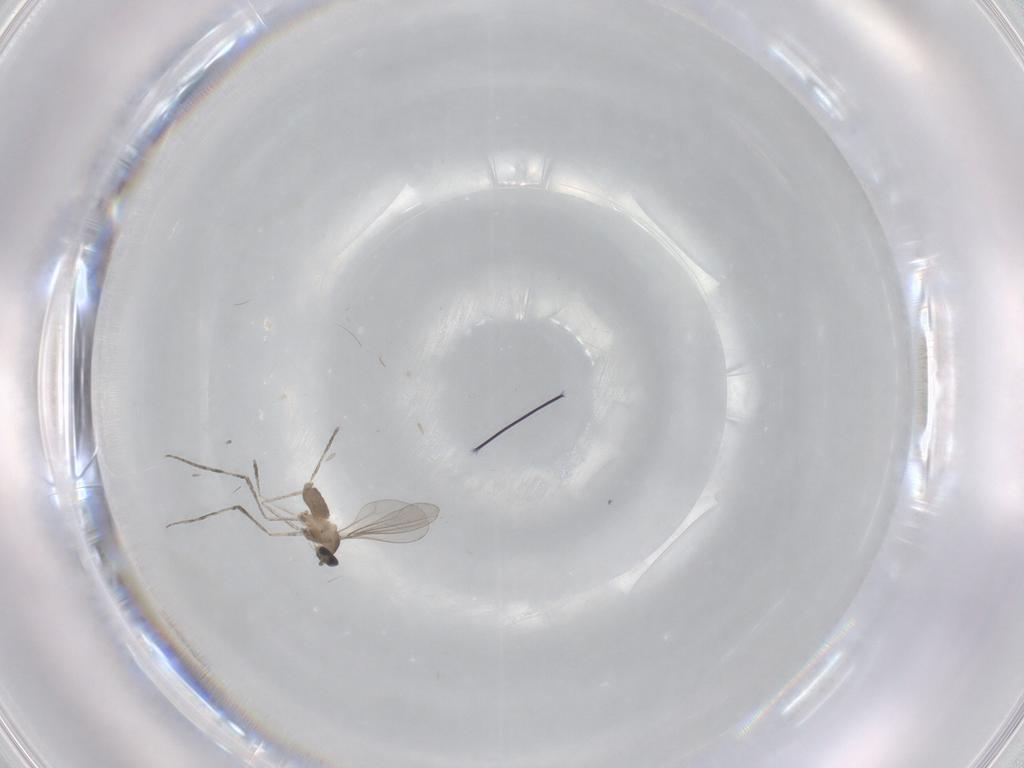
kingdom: Animalia
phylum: Arthropoda
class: Insecta
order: Diptera
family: Cecidomyiidae
